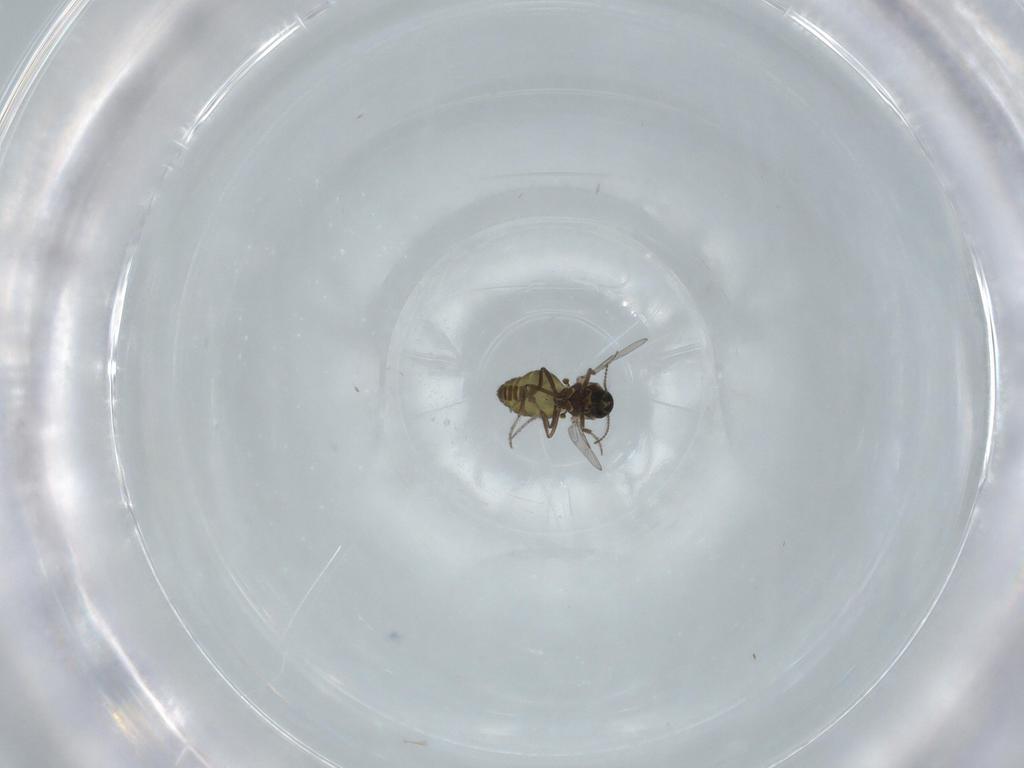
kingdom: Animalia
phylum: Arthropoda
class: Insecta
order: Diptera
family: Ceratopogonidae
